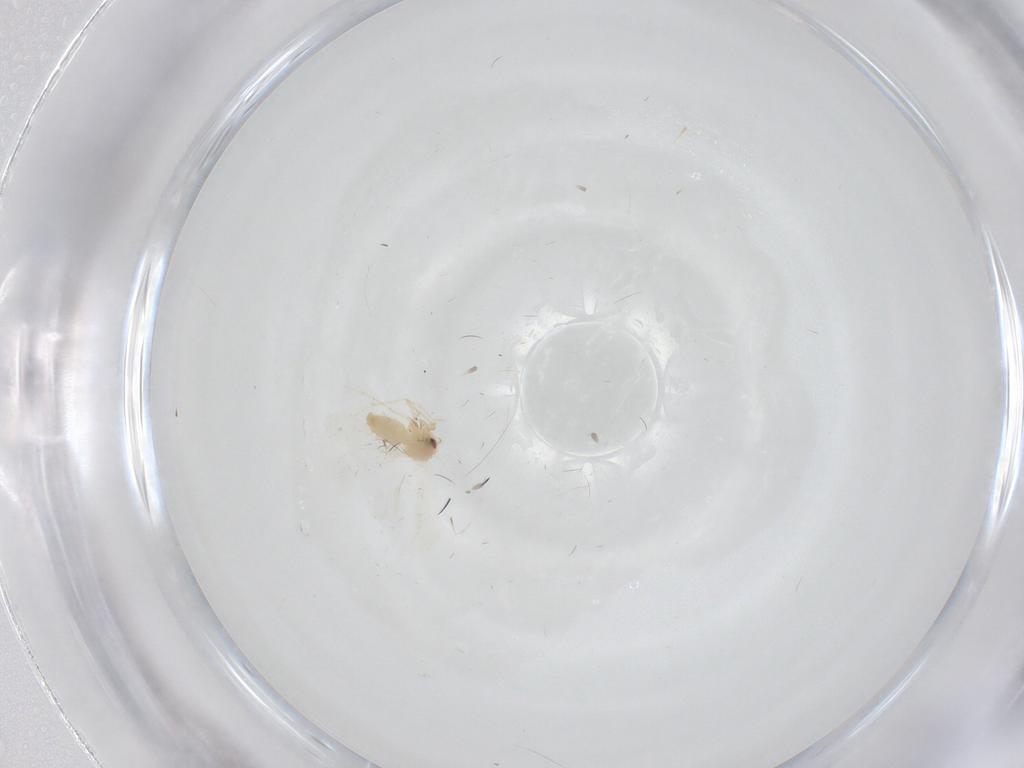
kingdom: Animalia
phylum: Arthropoda
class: Insecta
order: Hemiptera
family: Aleyrodidae
